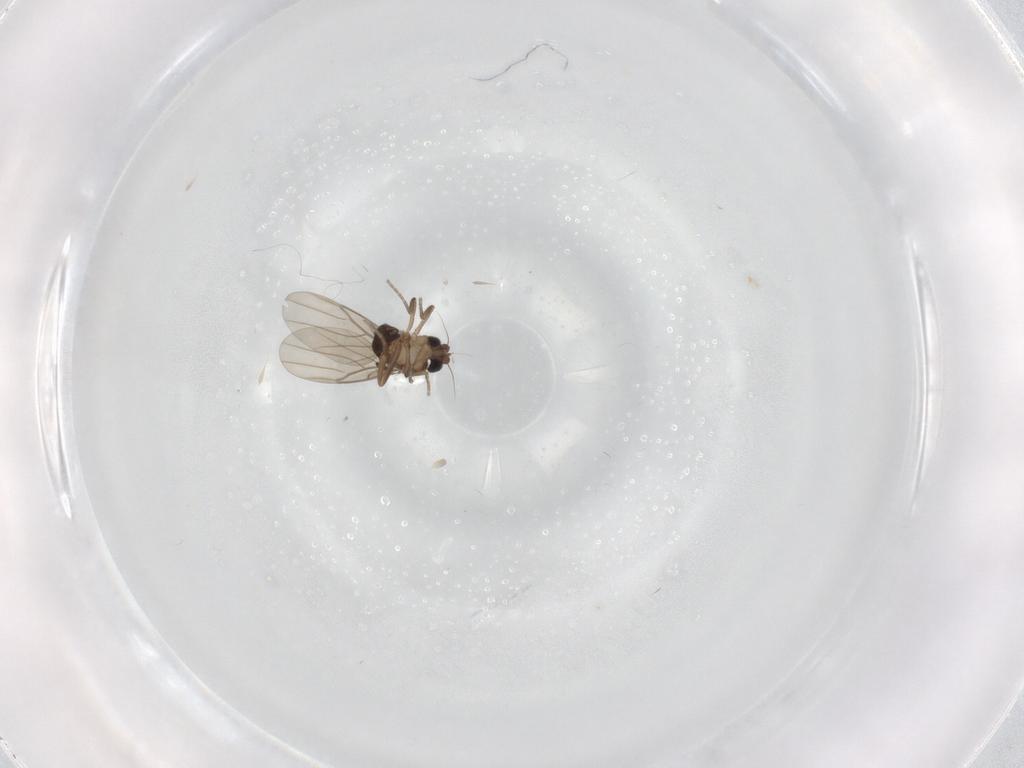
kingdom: Animalia
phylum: Arthropoda
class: Insecta
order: Diptera
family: Phoridae
